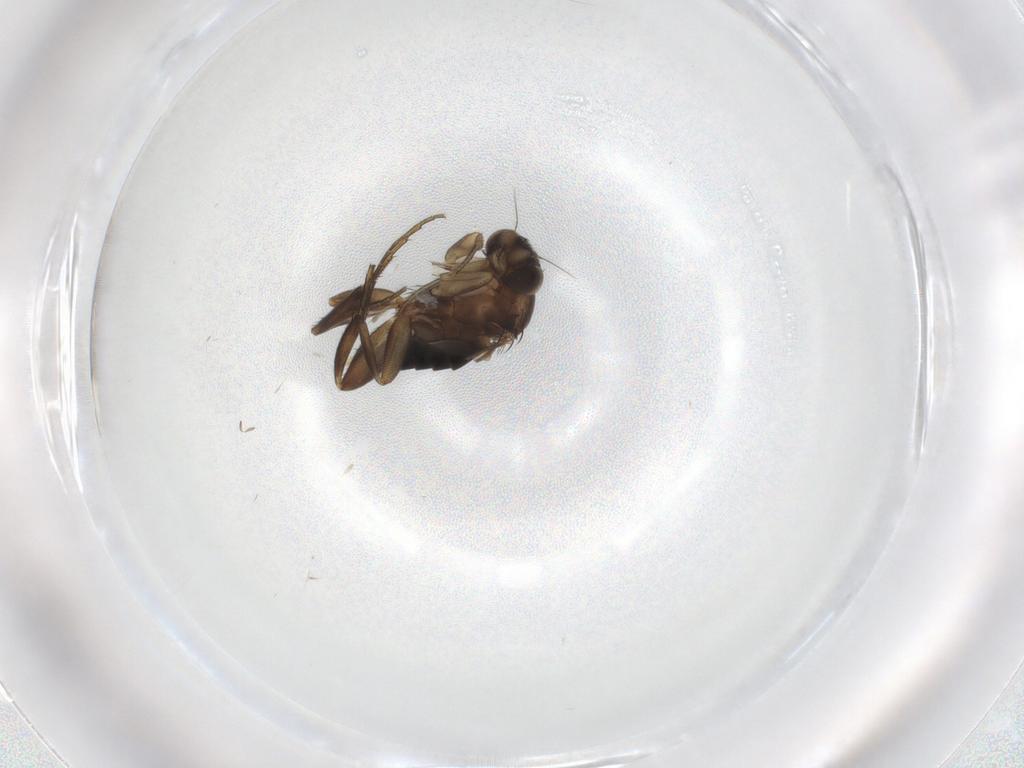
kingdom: Animalia
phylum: Arthropoda
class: Insecta
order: Diptera
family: Phoridae
